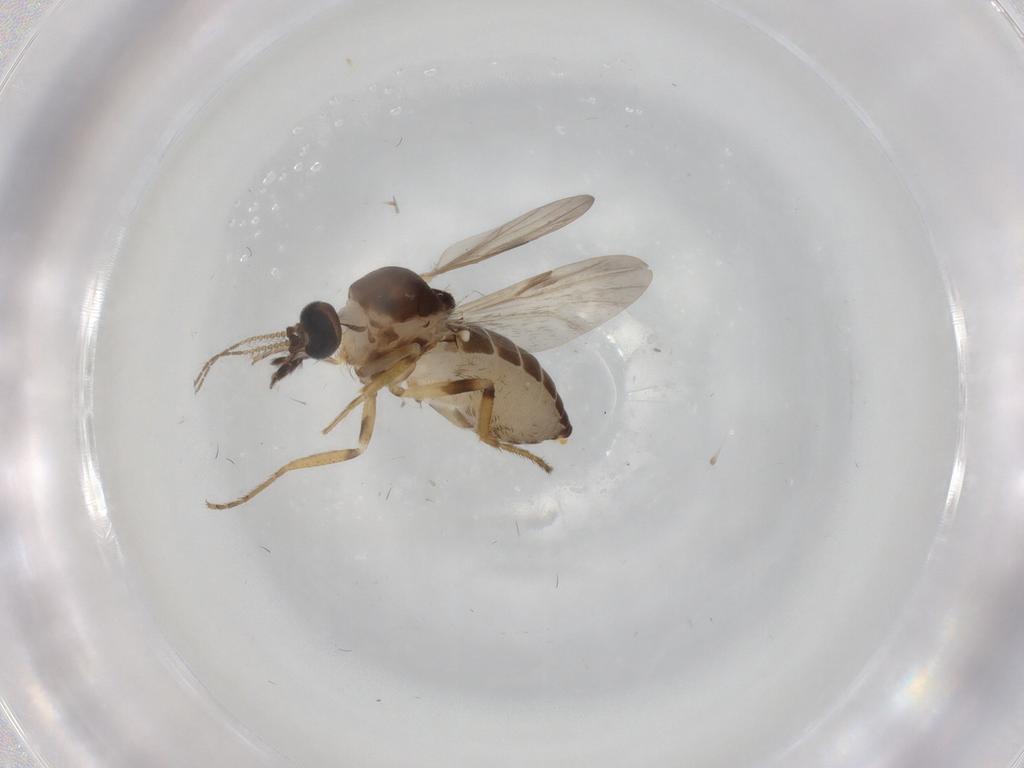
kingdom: Animalia
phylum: Arthropoda
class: Insecta
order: Diptera
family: Ceratopogonidae
